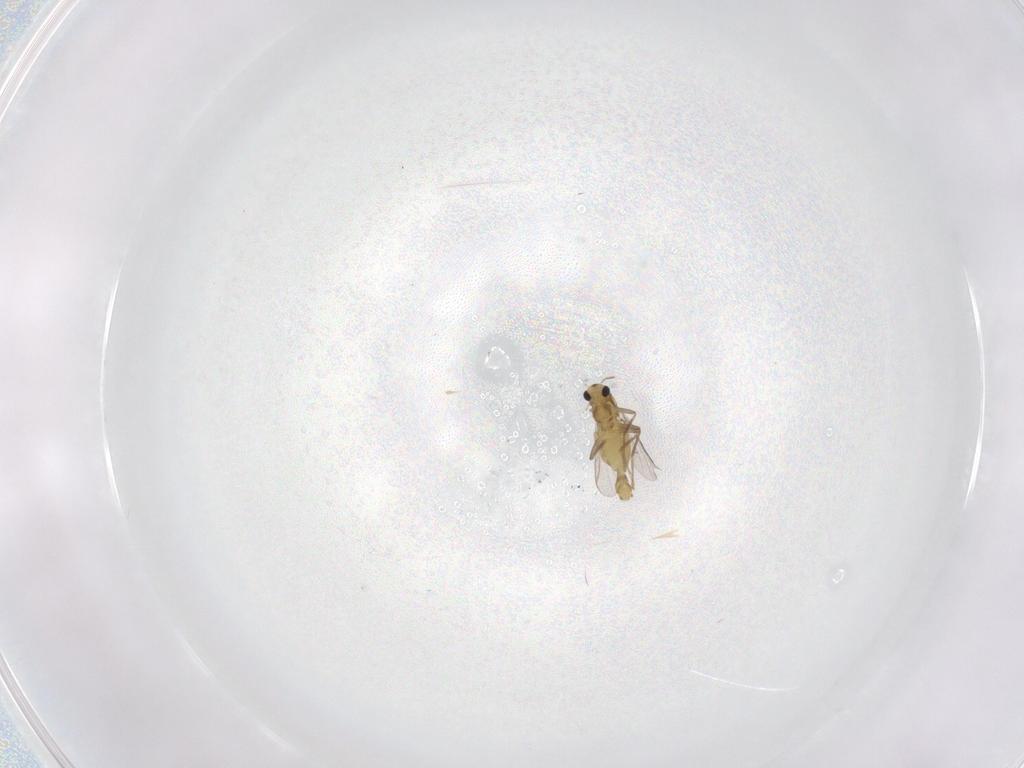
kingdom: Animalia
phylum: Arthropoda
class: Insecta
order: Diptera
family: Chironomidae
